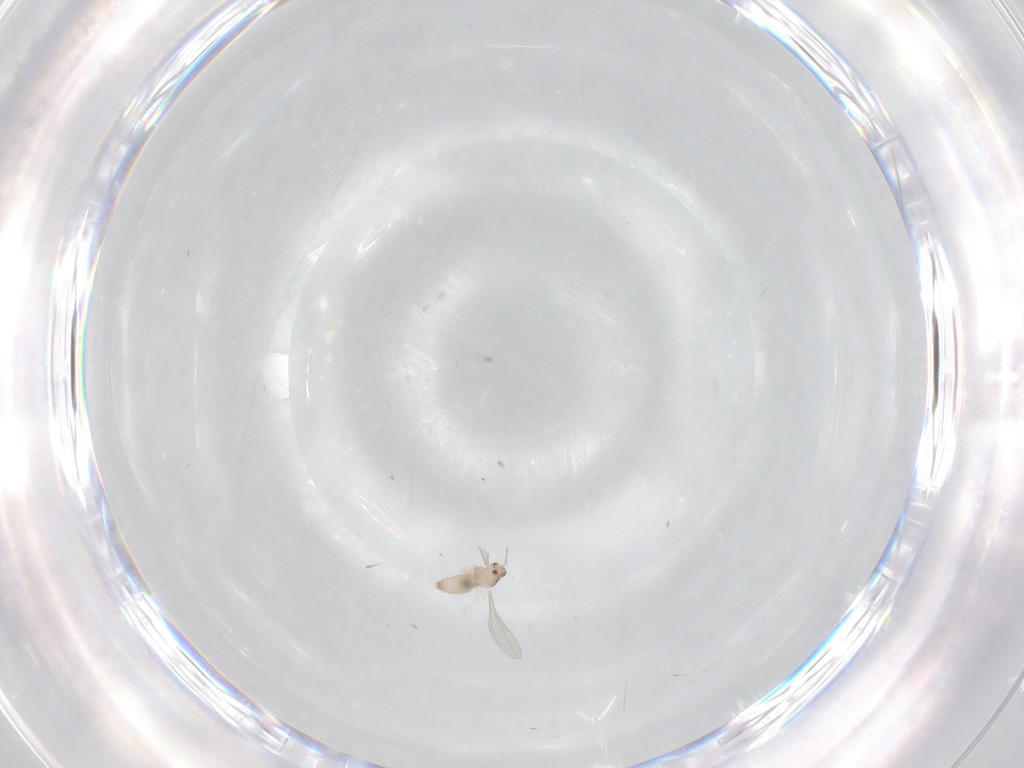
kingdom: Animalia
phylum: Arthropoda
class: Insecta
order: Diptera
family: Cecidomyiidae
